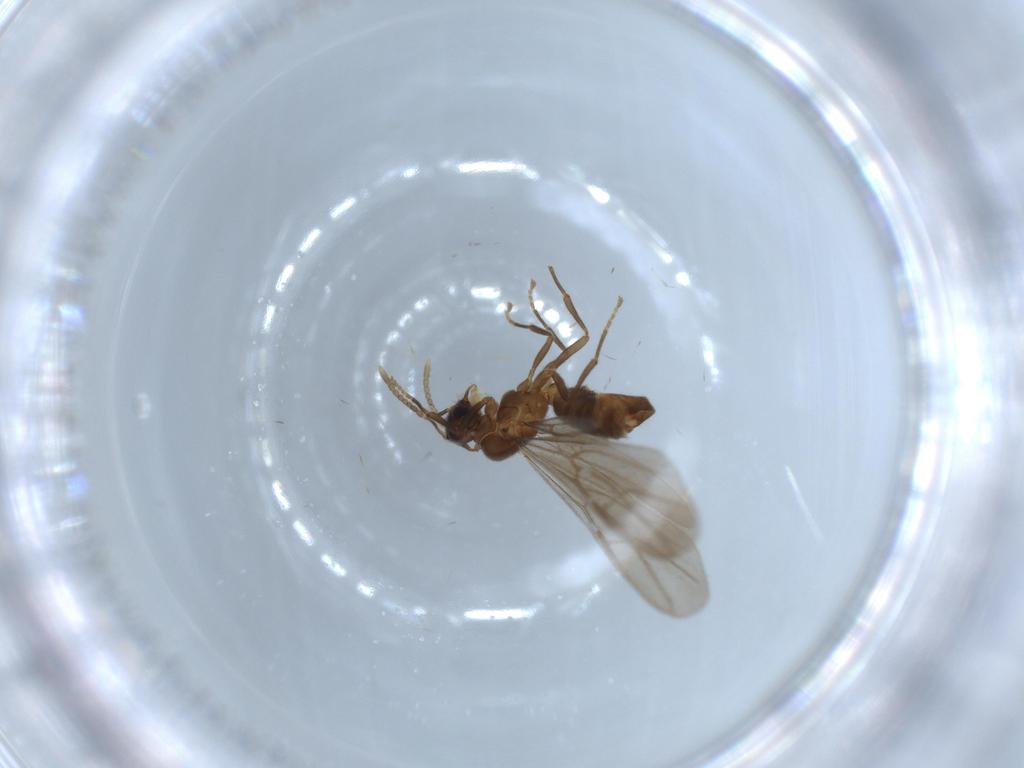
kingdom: Animalia
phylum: Arthropoda
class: Insecta
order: Hymenoptera
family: Formicidae
